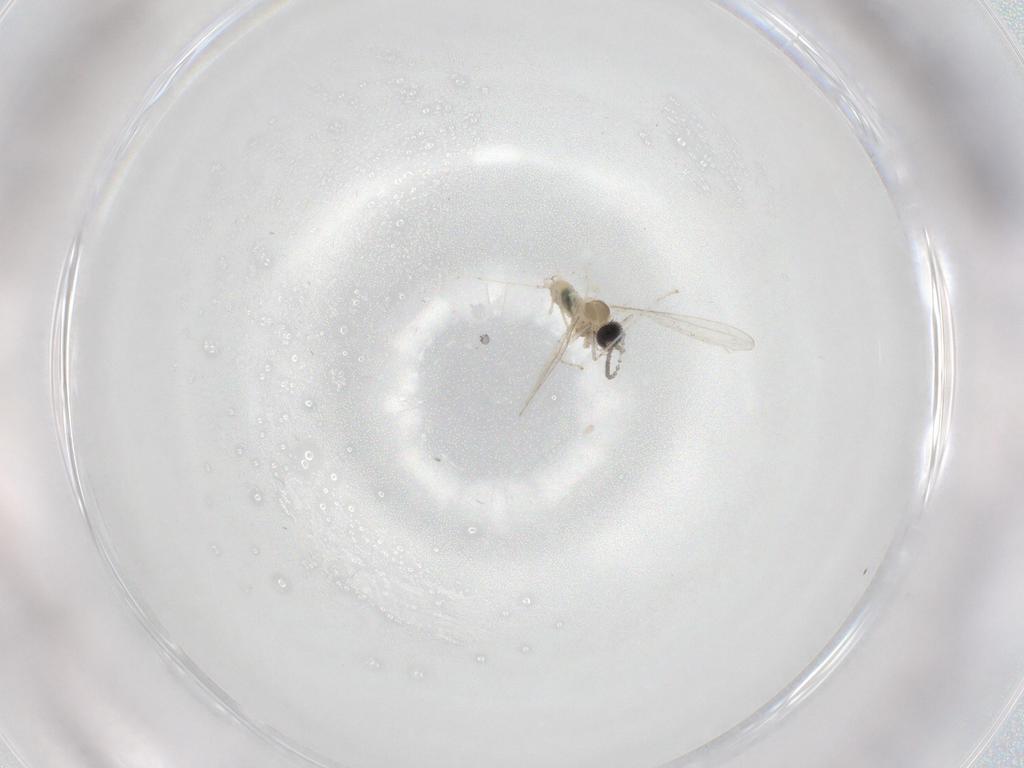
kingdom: Animalia
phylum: Arthropoda
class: Insecta
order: Diptera
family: Cecidomyiidae
